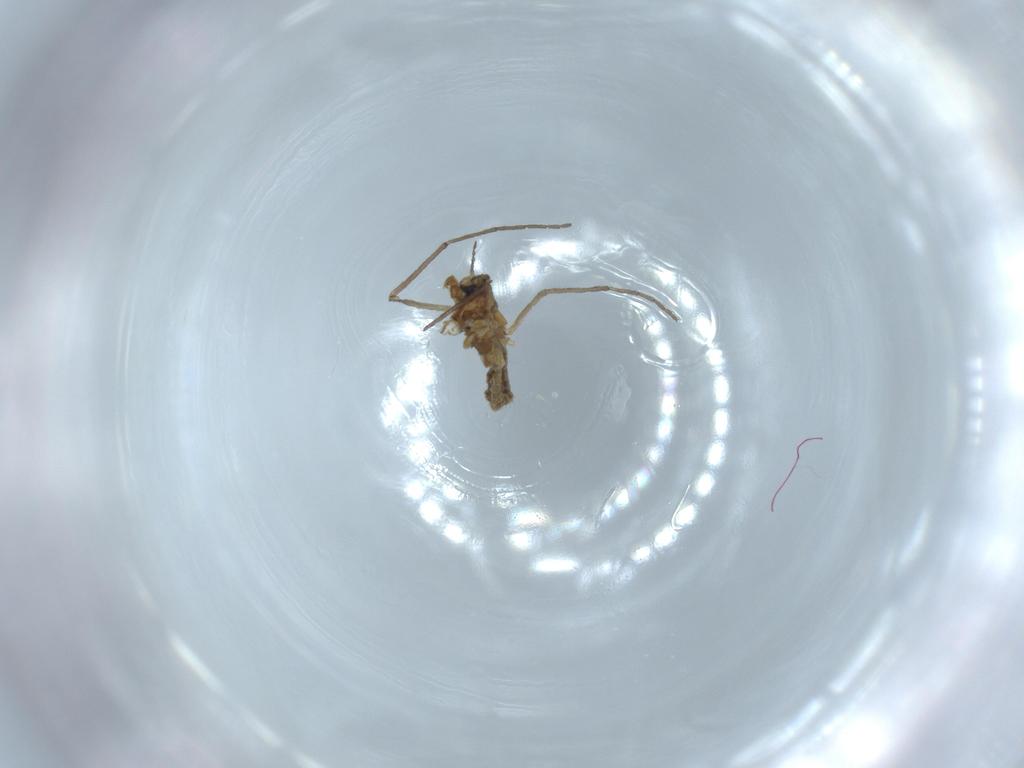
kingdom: Animalia
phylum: Arthropoda
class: Insecta
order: Diptera
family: Chironomidae
